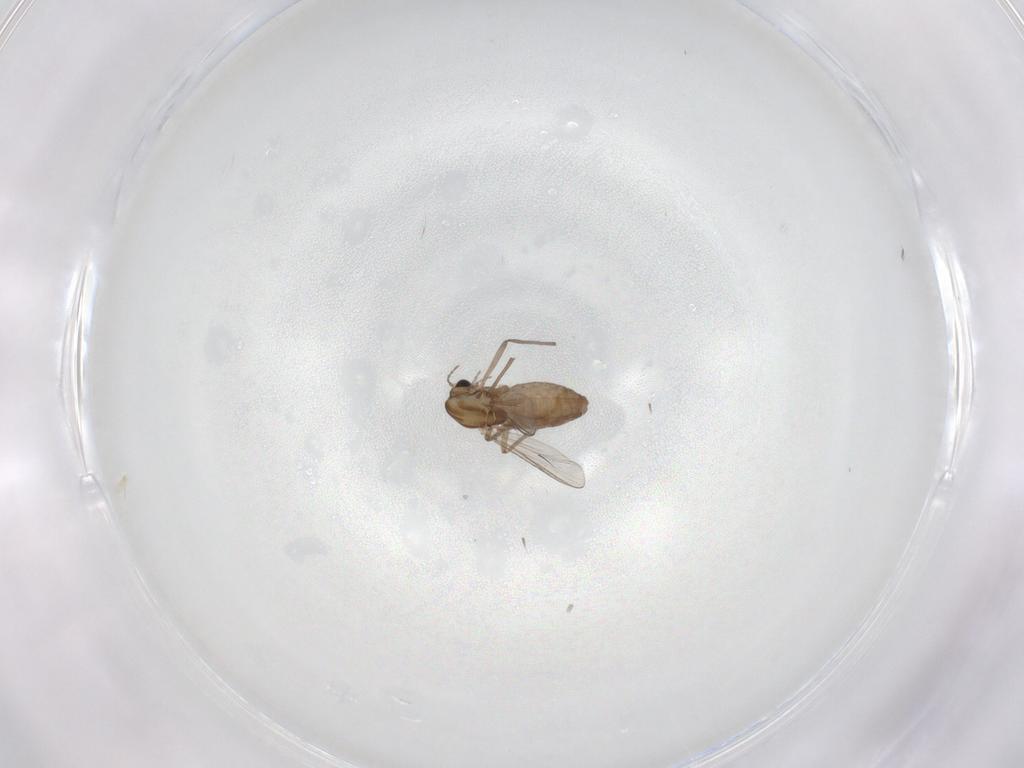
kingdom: Animalia
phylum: Arthropoda
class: Insecta
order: Diptera
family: Chironomidae
